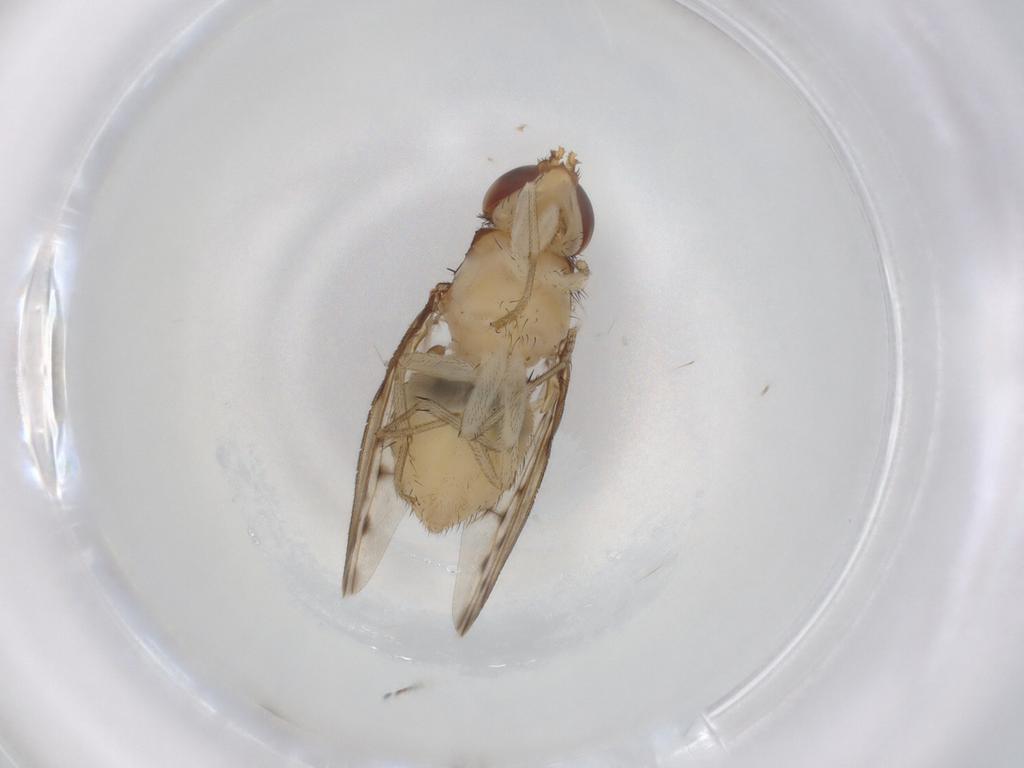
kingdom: Animalia
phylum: Arthropoda
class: Insecta
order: Diptera
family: Lauxaniidae
